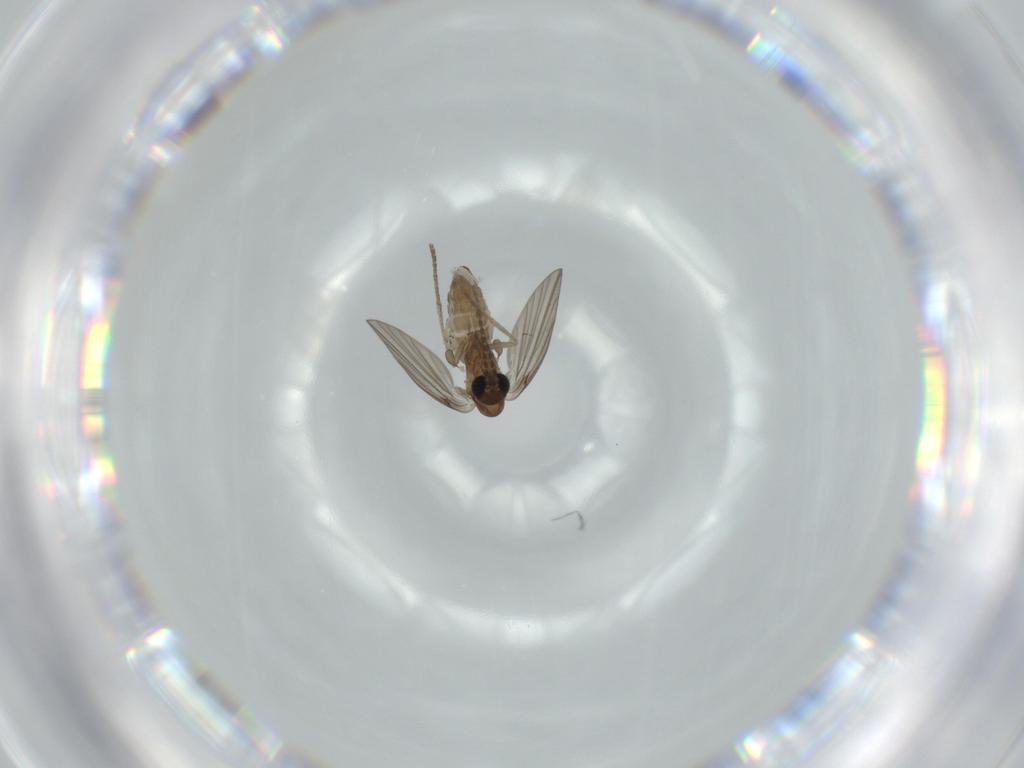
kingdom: Animalia
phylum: Arthropoda
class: Insecta
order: Diptera
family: Psychodidae
